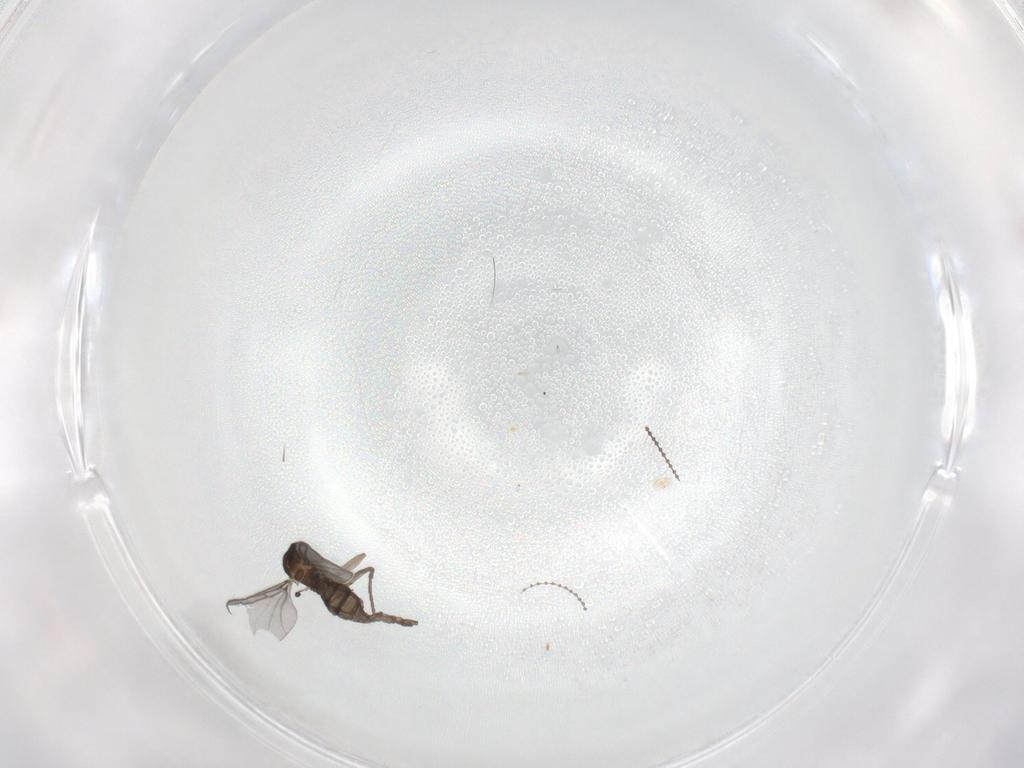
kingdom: Animalia
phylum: Arthropoda
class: Insecta
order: Diptera
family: Sciaridae
